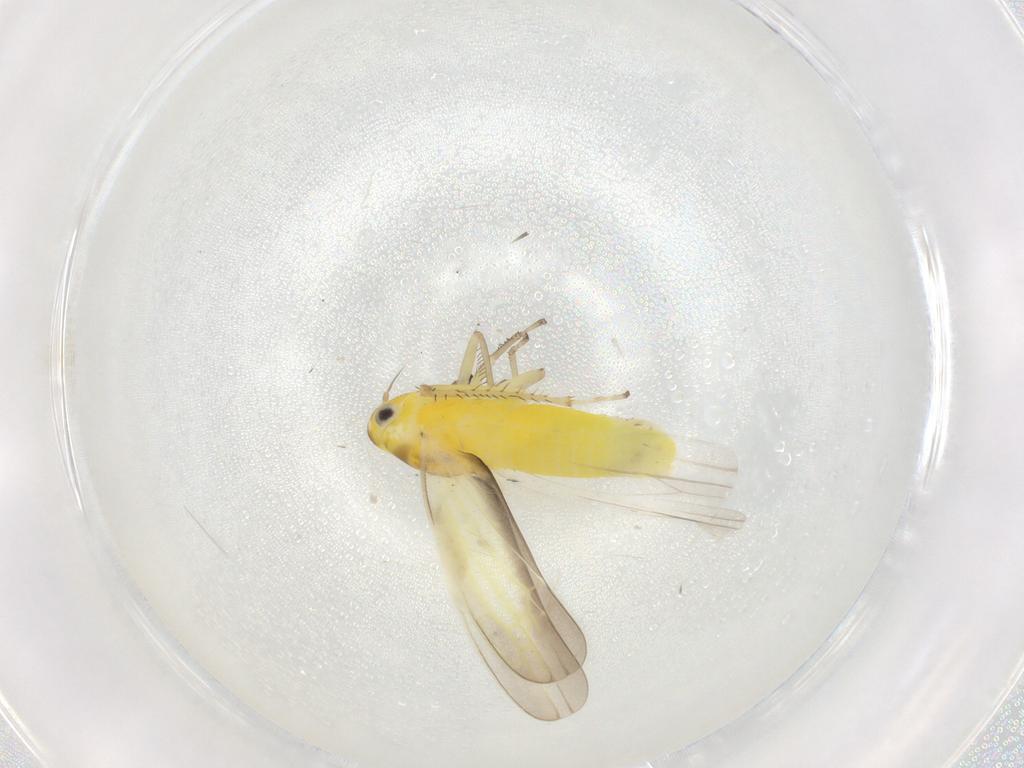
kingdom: Animalia
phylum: Arthropoda
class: Insecta
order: Hemiptera
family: Cicadellidae
